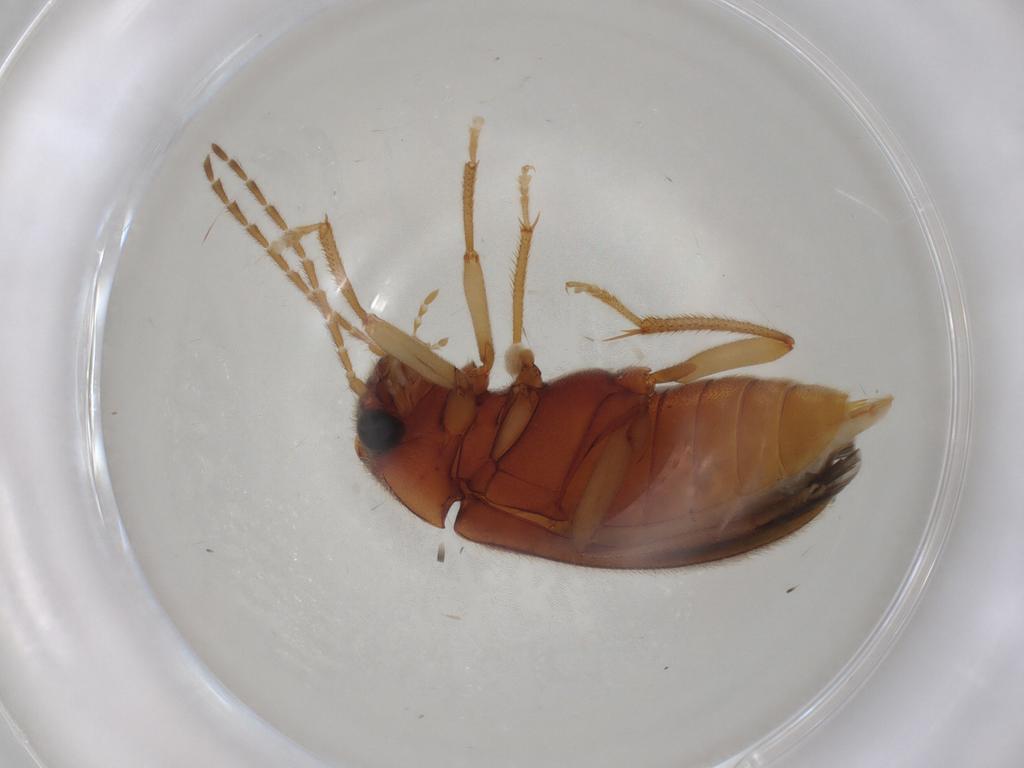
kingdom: Animalia
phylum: Arthropoda
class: Insecta
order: Coleoptera
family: Ptilodactylidae
